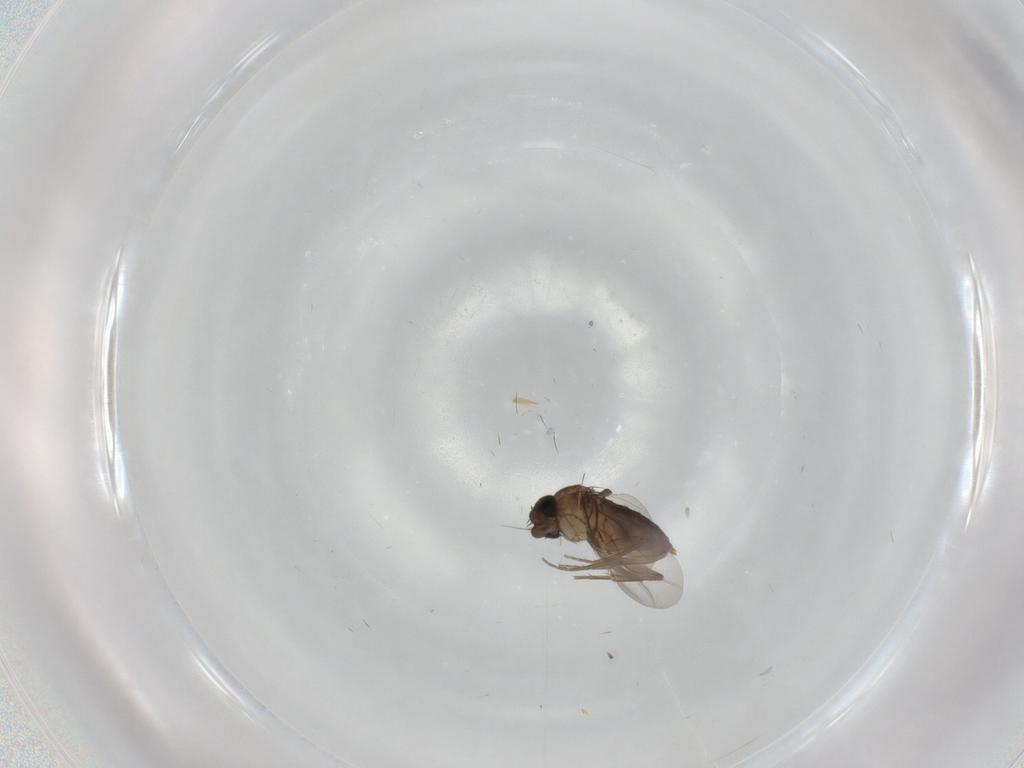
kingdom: Animalia
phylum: Arthropoda
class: Insecta
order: Diptera
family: Phoridae
